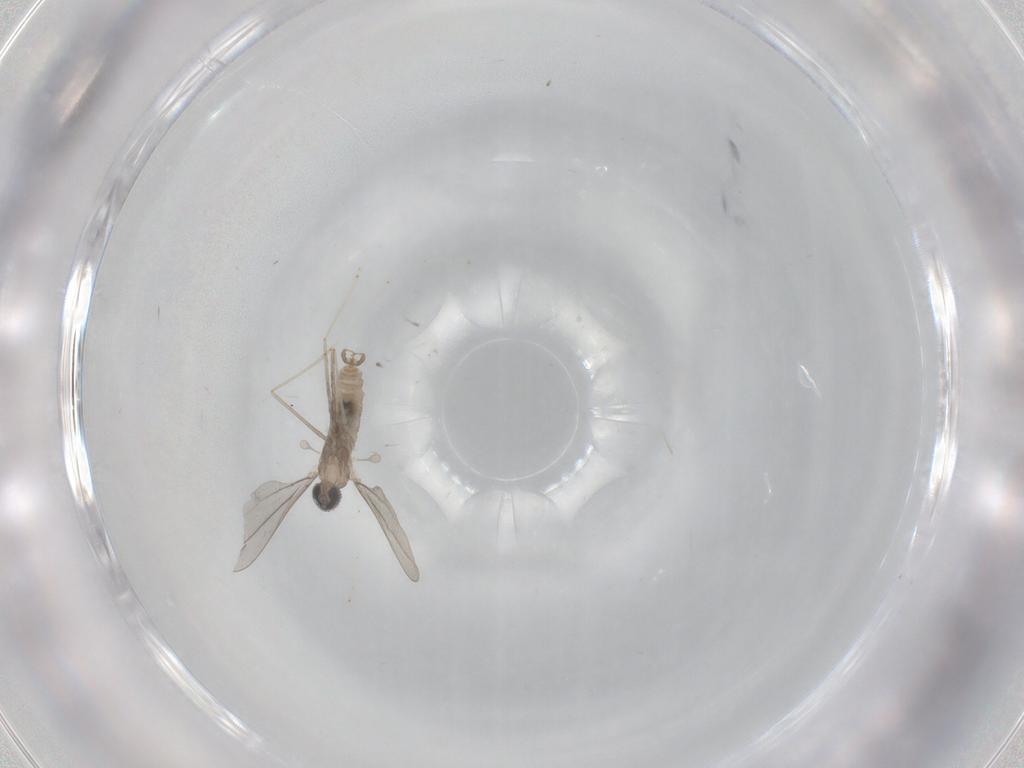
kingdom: Animalia
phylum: Arthropoda
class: Insecta
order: Diptera
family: Cecidomyiidae
